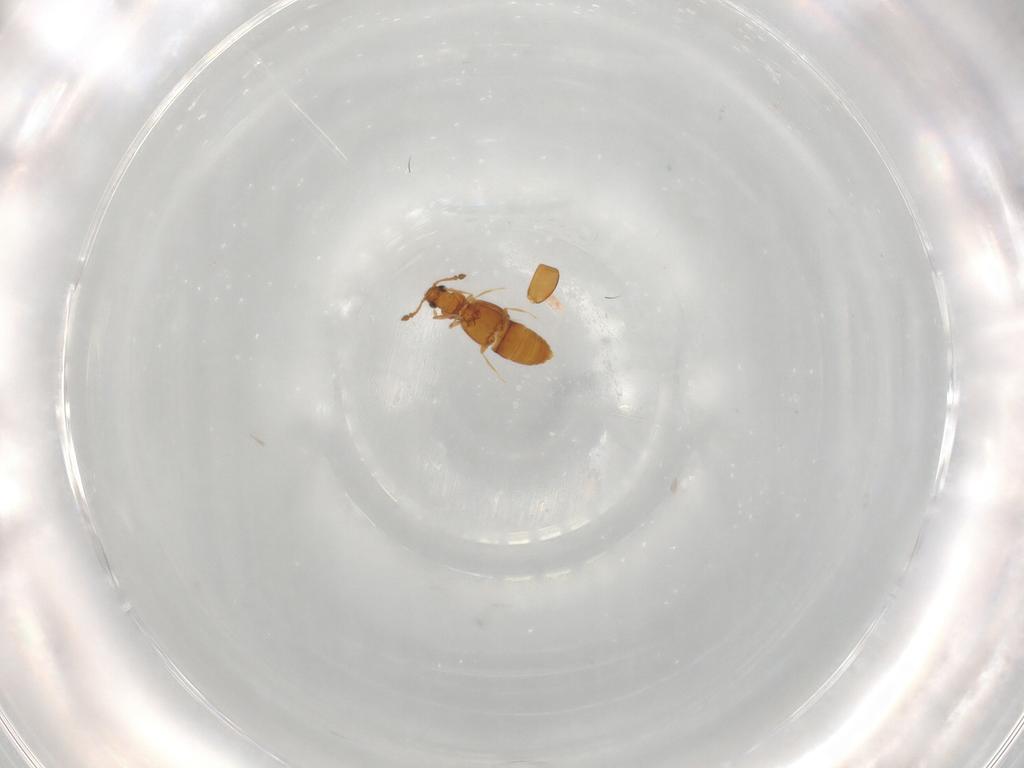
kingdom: Animalia
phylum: Arthropoda
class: Insecta
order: Coleoptera
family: Staphylinidae
